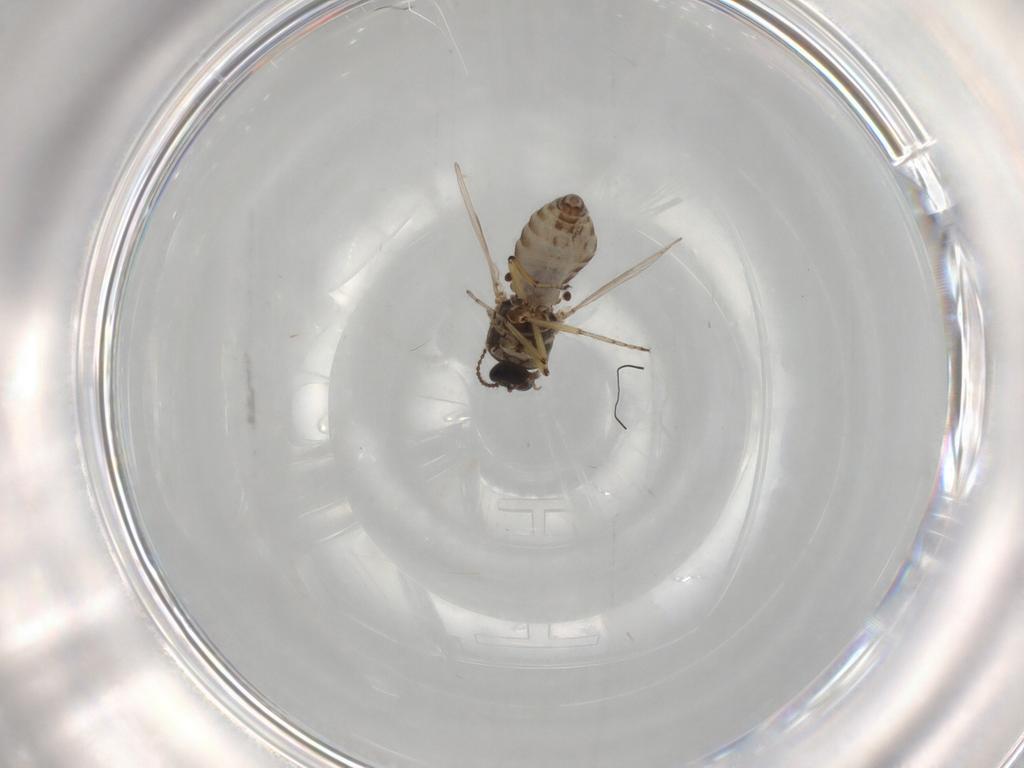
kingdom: Animalia
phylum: Arthropoda
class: Insecta
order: Diptera
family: Ceratopogonidae
